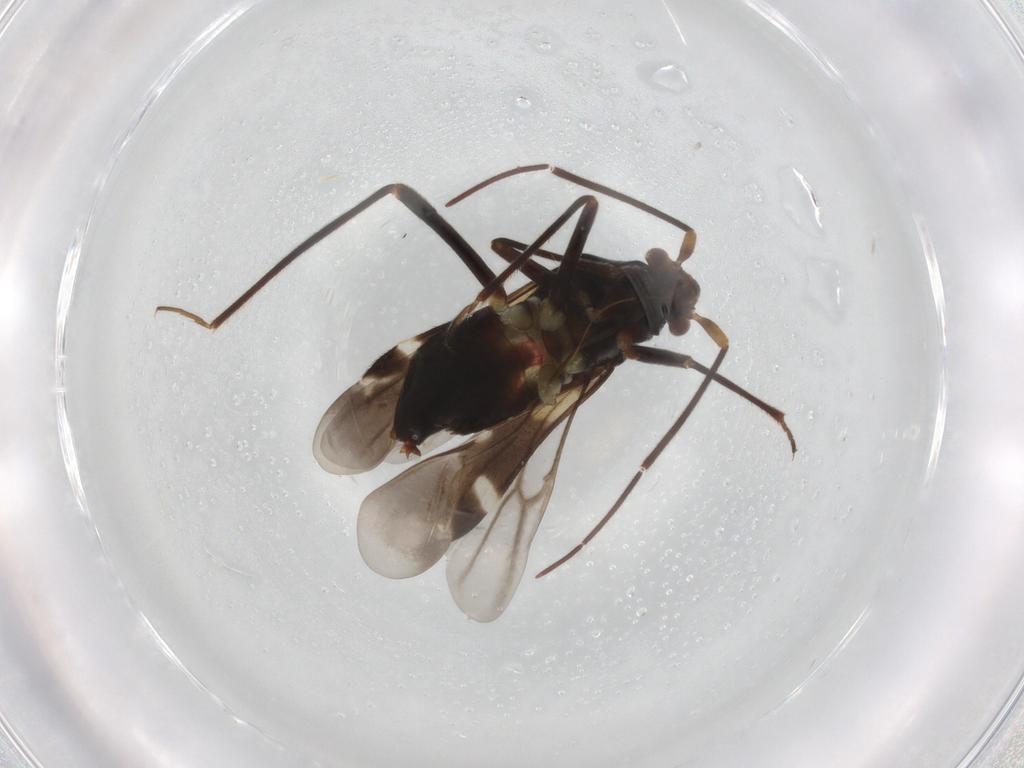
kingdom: Animalia
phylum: Arthropoda
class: Insecta
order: Hemiptera
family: Miridae
